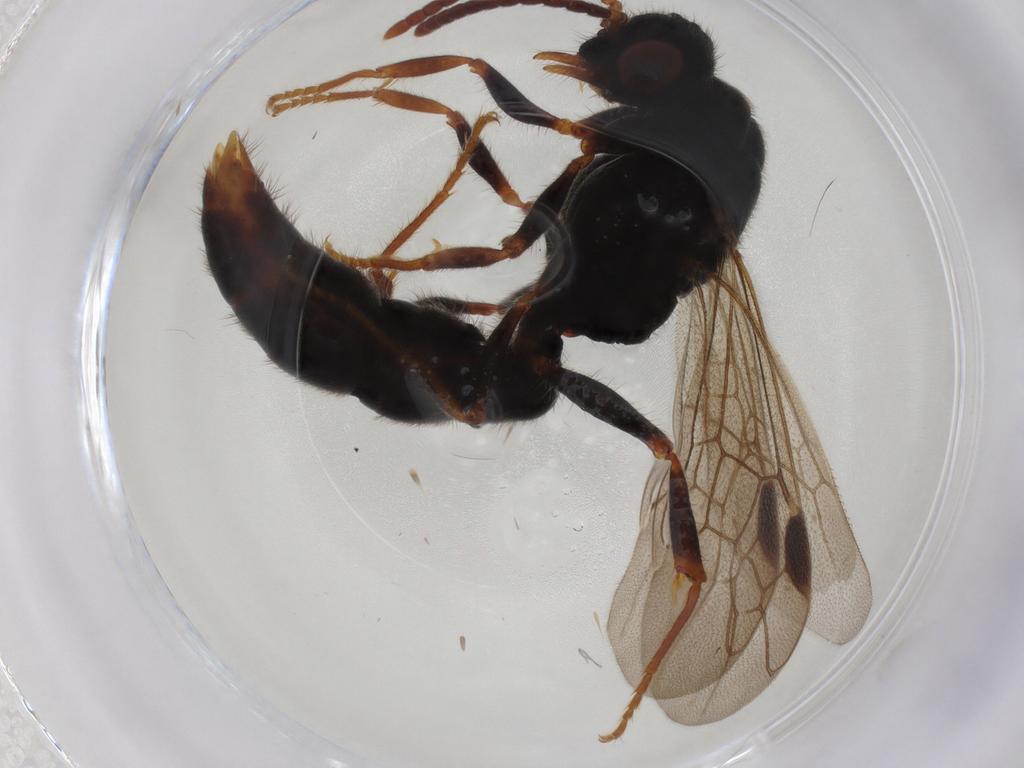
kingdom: Animalia
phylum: Arthropoda
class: Insecta
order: Hymenoptera
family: Formicidae
